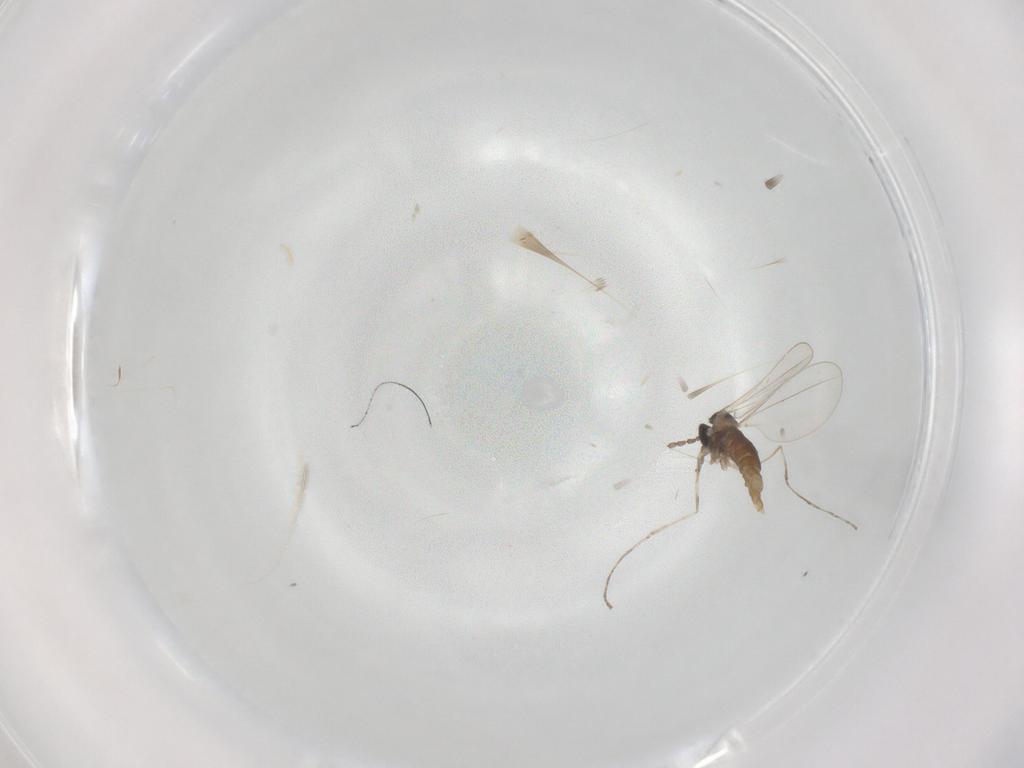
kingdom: Animalia
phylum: Arthropoda
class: Insecta
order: Diptera
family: Cecidomyiidae
